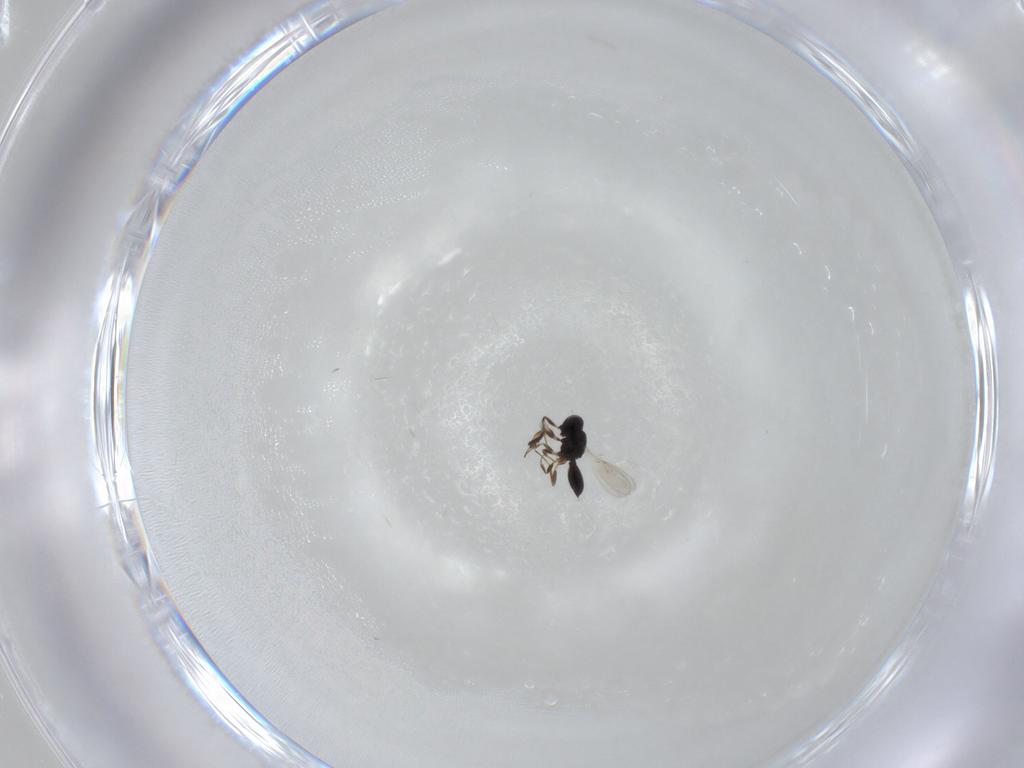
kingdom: Animalia
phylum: Arthropoda
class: Insecta
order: Hymenoptera
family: Scelionidae
